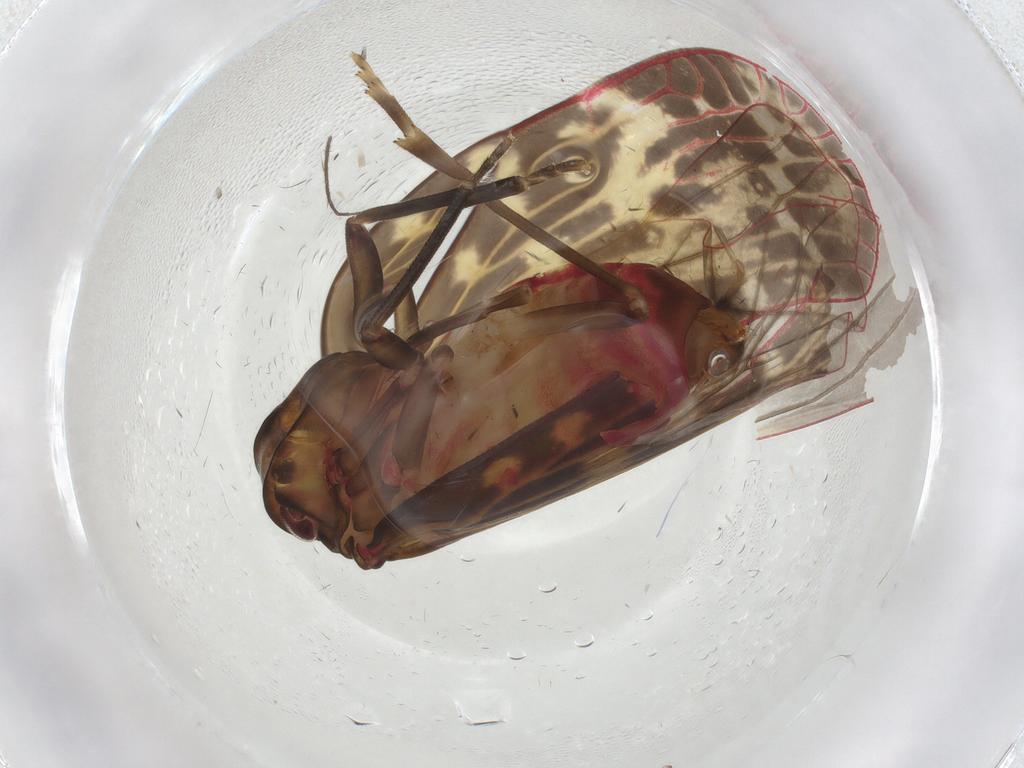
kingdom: Animalia
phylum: Arthropoda
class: Insecta
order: Hemiptera
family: Achilidae
